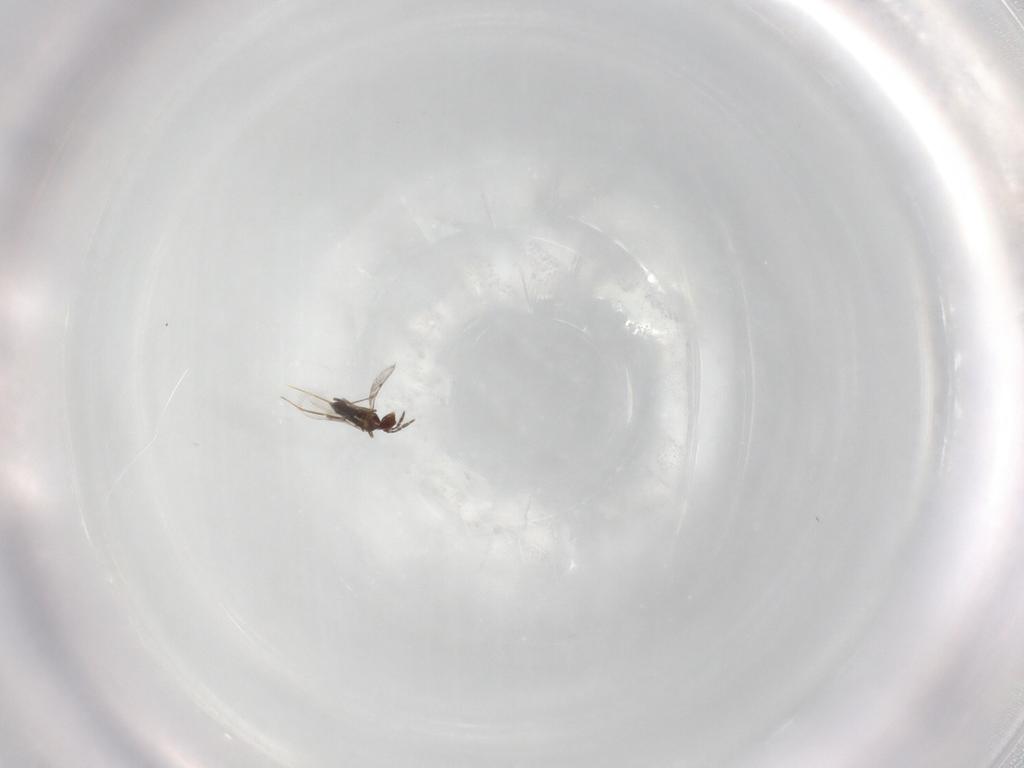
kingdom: Animalia
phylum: Arthropoda
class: Insecta
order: Hymenoptera
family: Trichogrammatidae
